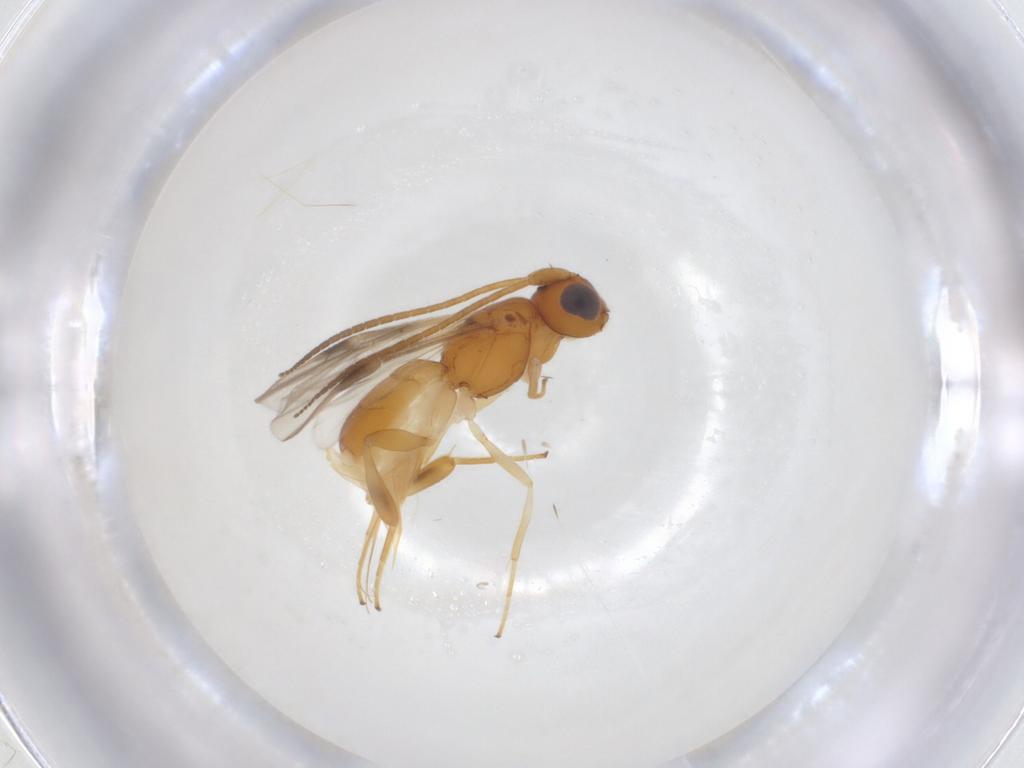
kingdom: Animalia
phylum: Arthropoda
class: Insecta
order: Hymenoptera
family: Braconidae
